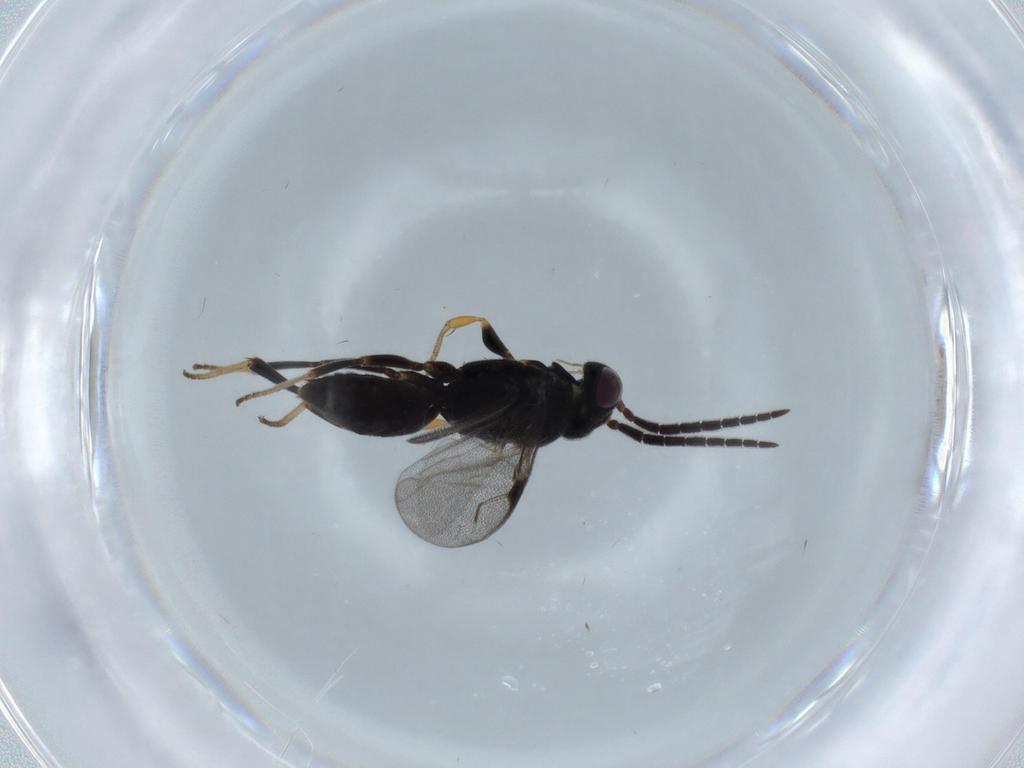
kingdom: Animalia
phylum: Arthropoda
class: Insecta
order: Hymenoptera
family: Dryinidae
